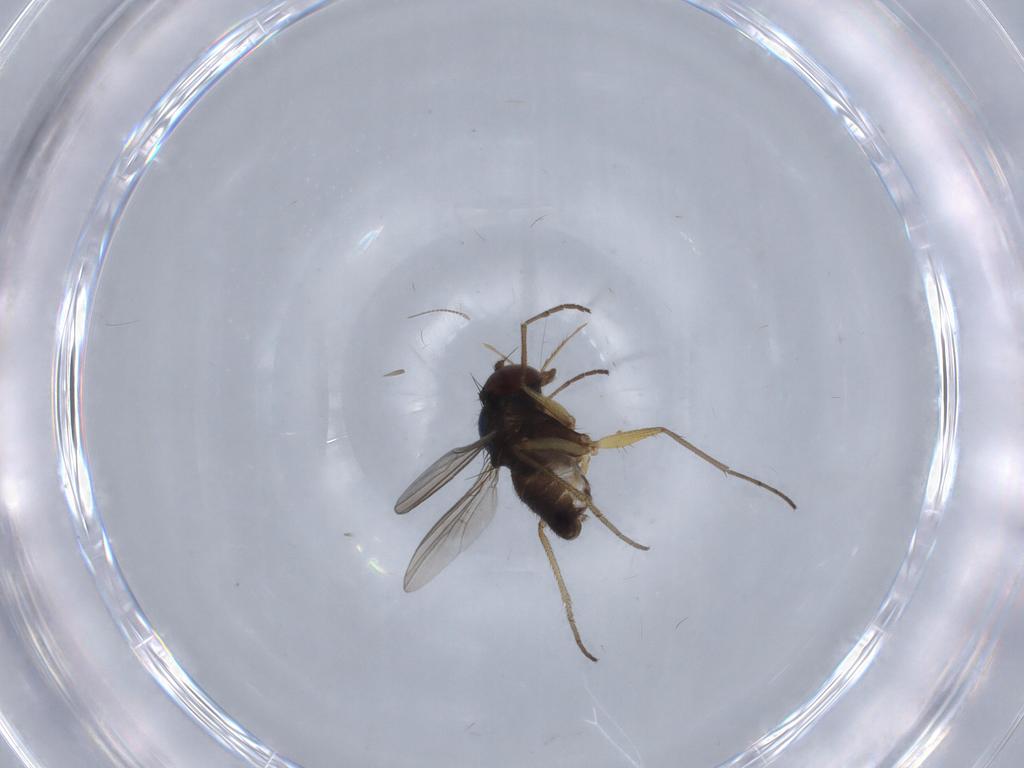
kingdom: Animalia
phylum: Arthropoda
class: Insecta
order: Diptera
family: Dolichopodidae
